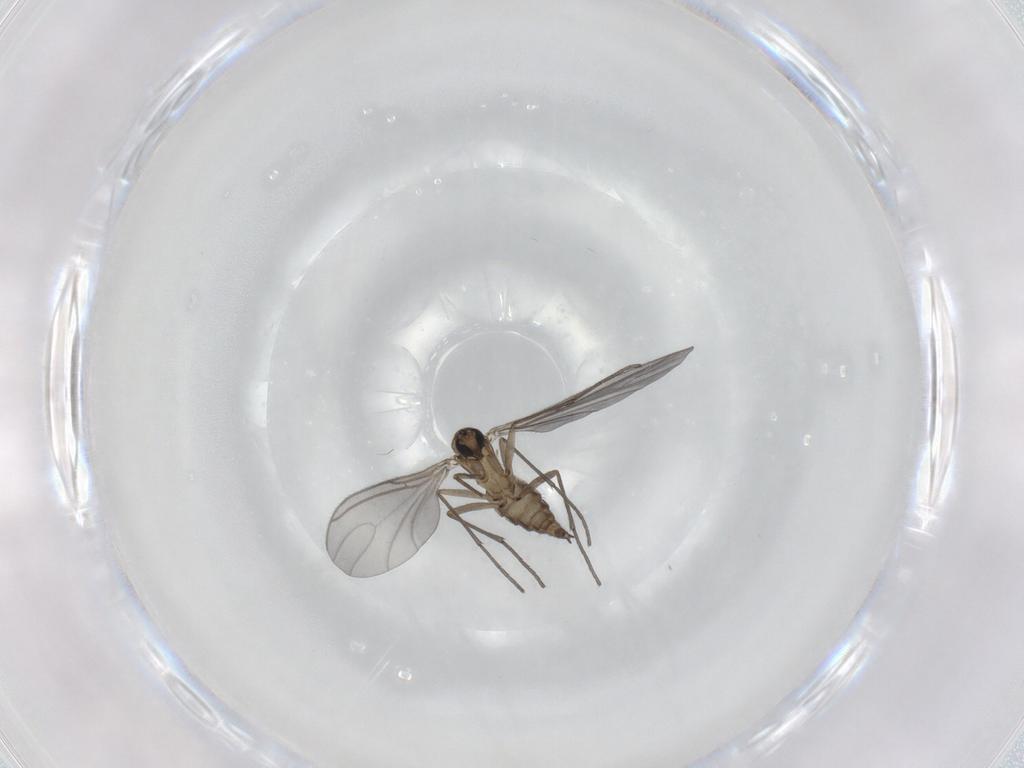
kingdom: Animalia
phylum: Arthropoda
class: Insecta
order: Diptera
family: Sciaridae
